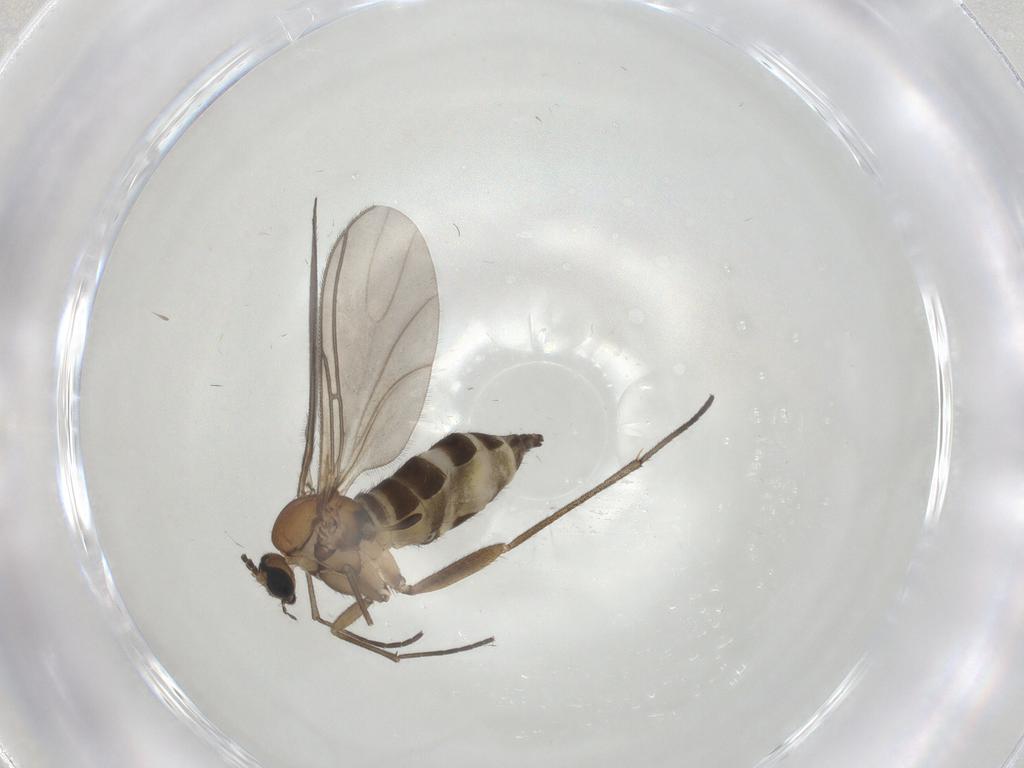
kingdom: Animalia
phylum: Arthropoda
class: Insecta
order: Diptera
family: Sciaridae
